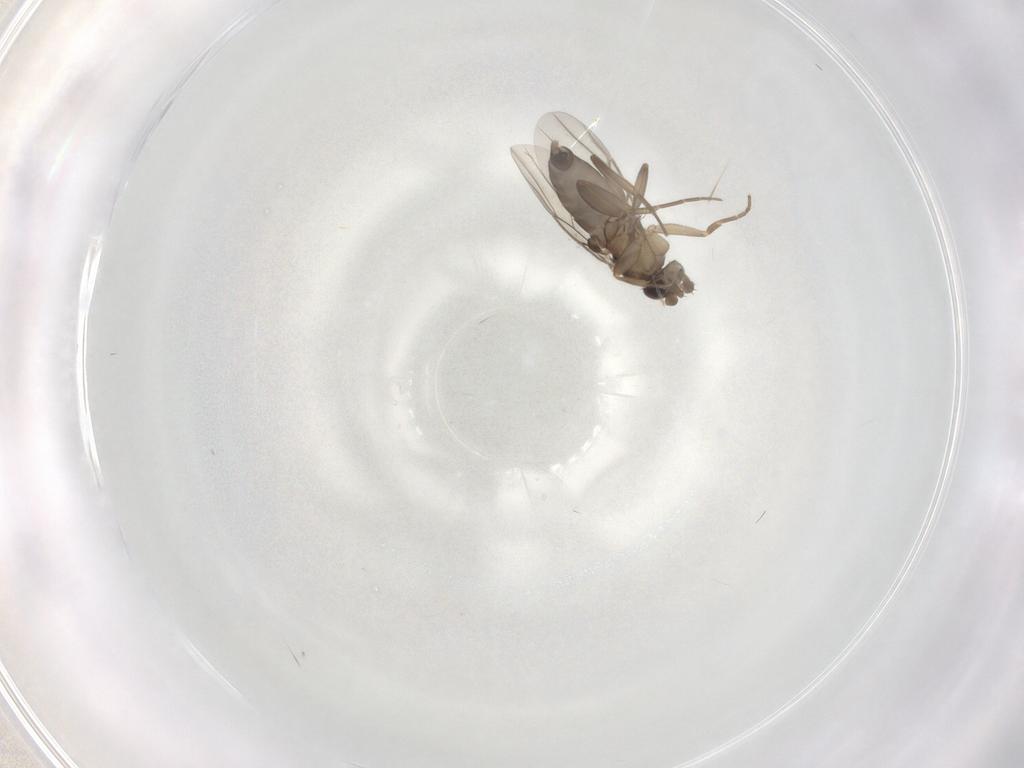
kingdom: Animalia
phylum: Arthropoda
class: Insecta
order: Diptera
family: Phoridae
